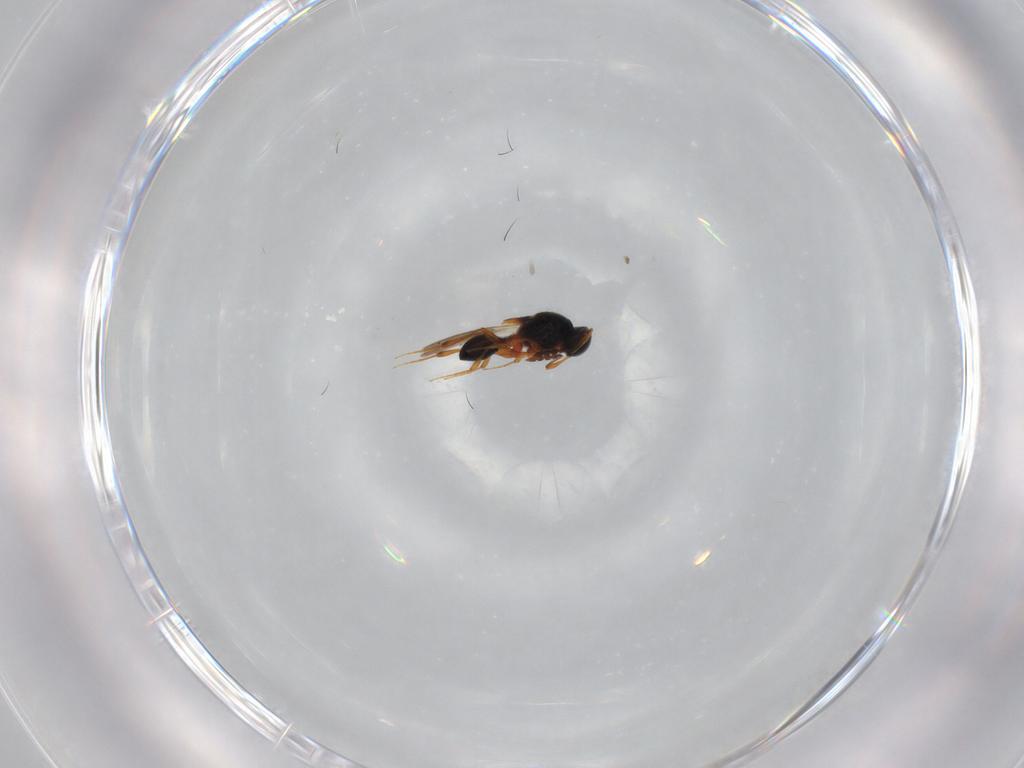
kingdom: Animalia
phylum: Arthropoda
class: Insecta
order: Hymenoptera
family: Platygastridae
